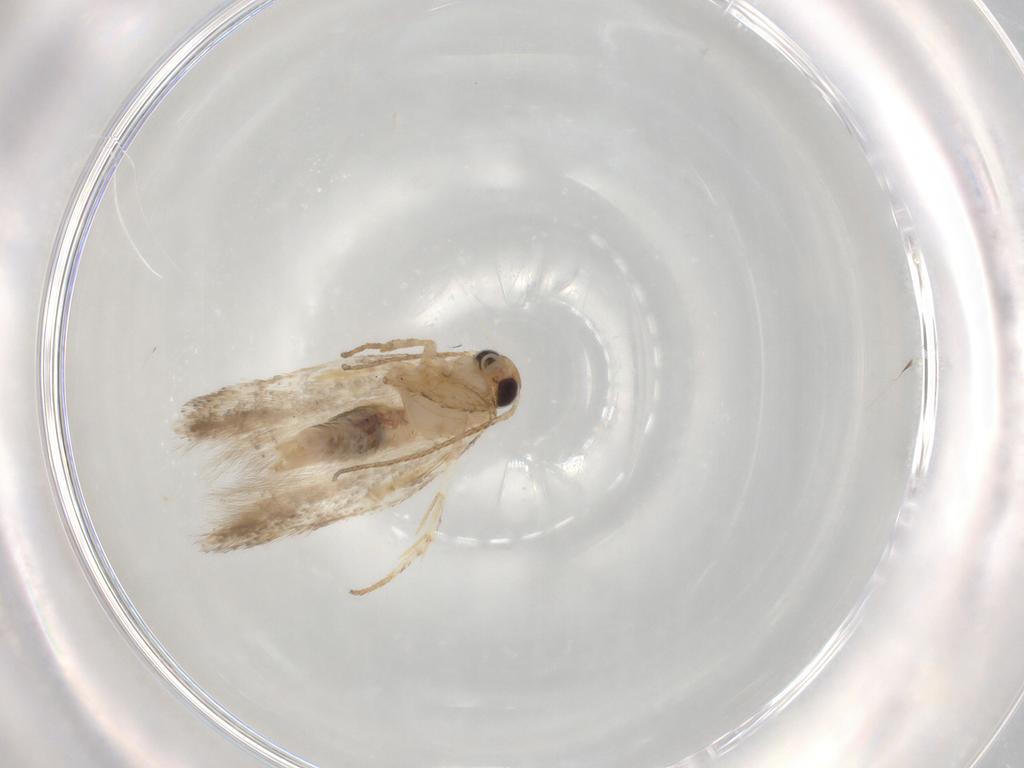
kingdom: Animalia
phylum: Arthropoda
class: Insecta
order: Lepidoptera
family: Gelechiidae
